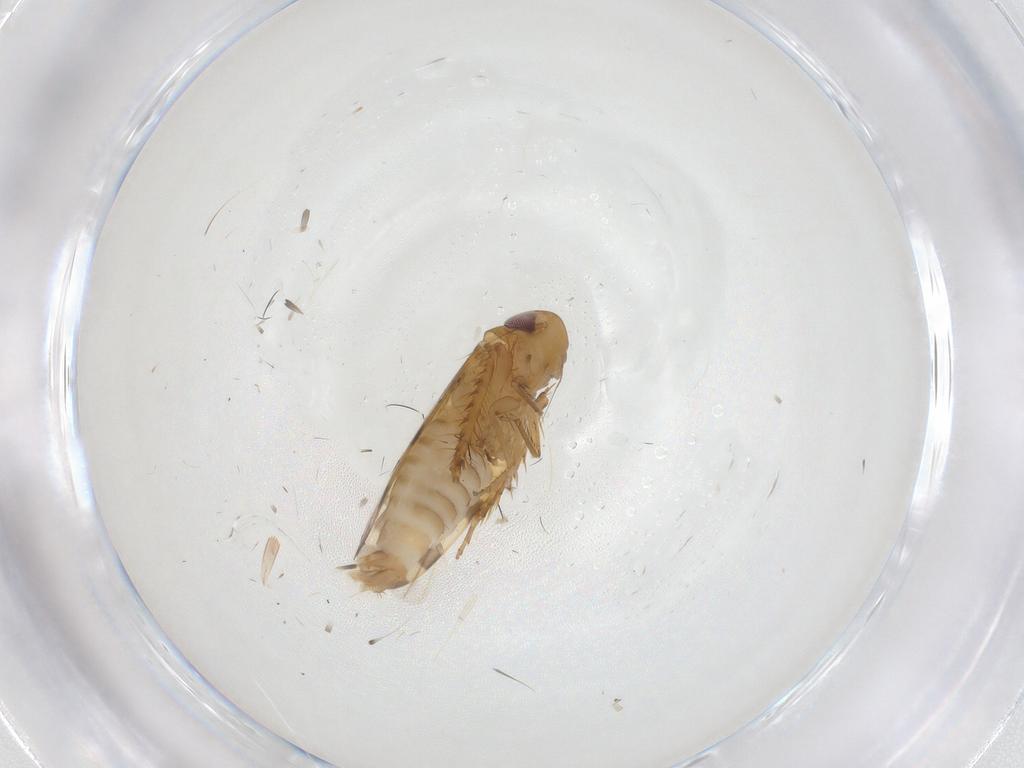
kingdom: Animalia
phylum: Arthropoda
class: Insecta
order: Hemiptera
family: Cicadellidae
